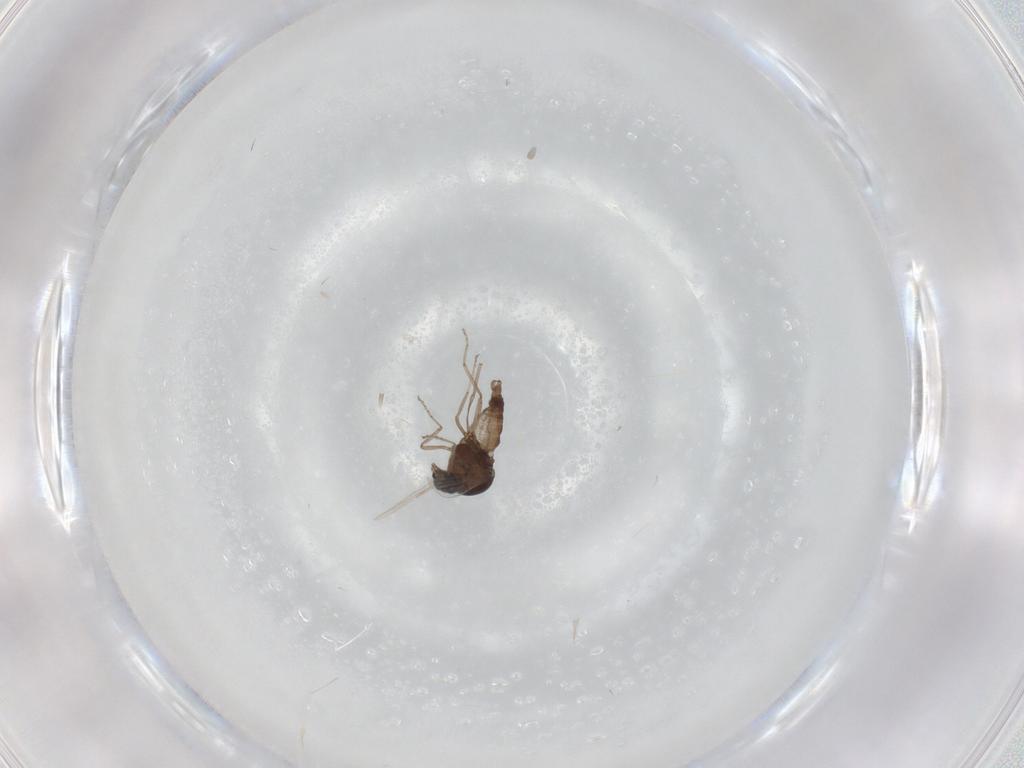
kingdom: Animalia
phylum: Arthropoda
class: Insecta
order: Diptera
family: Ceratopogonidae
